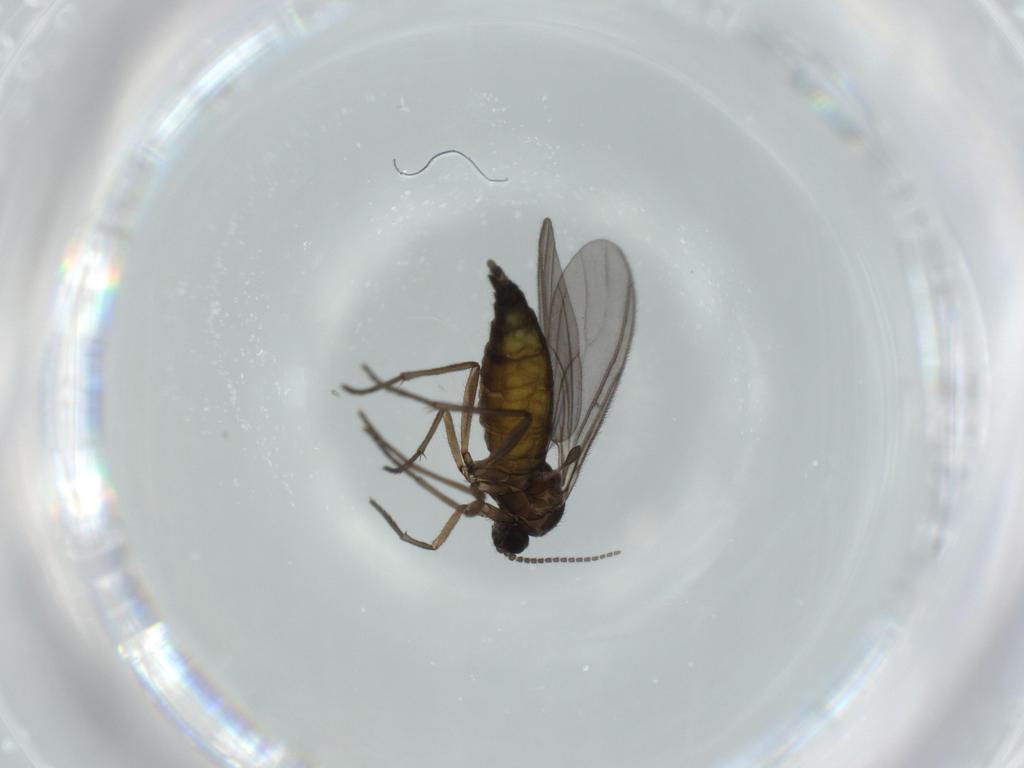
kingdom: Animalia
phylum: Arthropoda
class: Insecta
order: Diptera
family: Sciaridae
